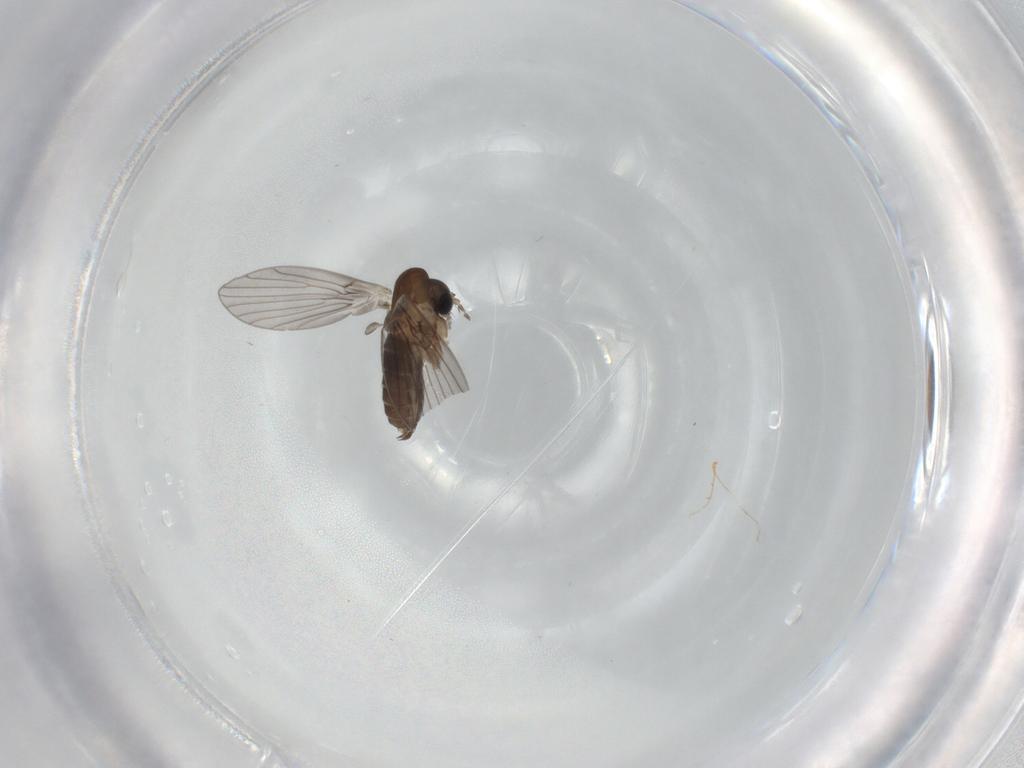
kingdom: Animalia
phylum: Arthropoda
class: Insecta
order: Diptera
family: Psychodidae
